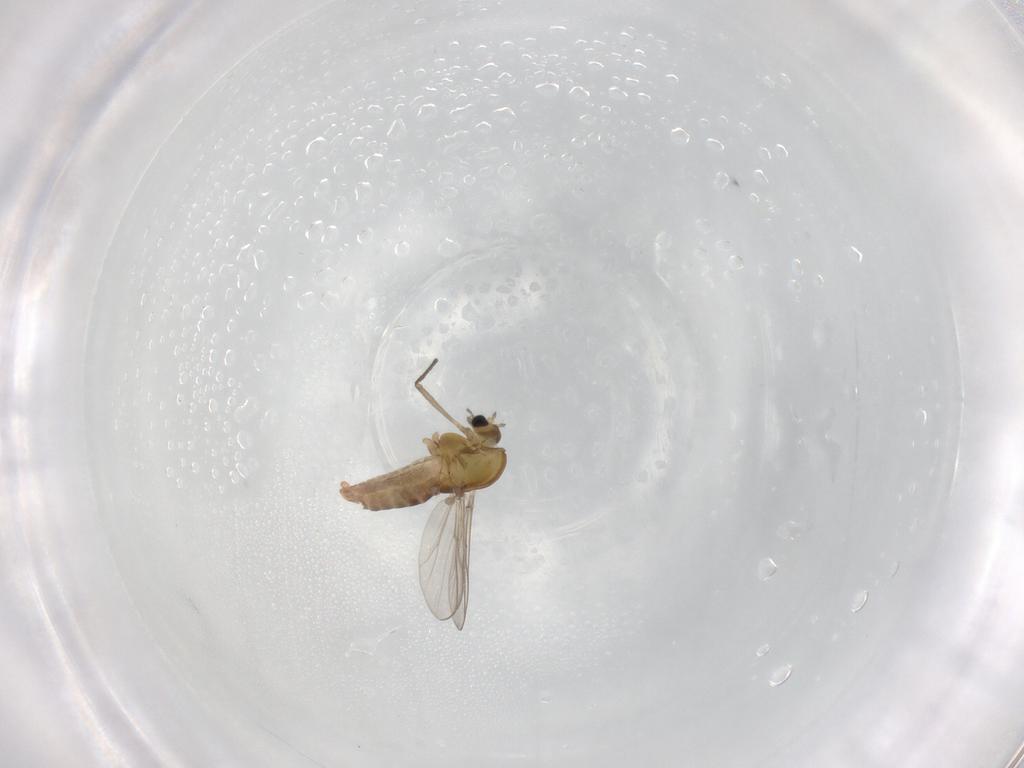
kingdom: Animalia
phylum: Arthropoda
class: Insecta
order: Diptera
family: Chironomidae
